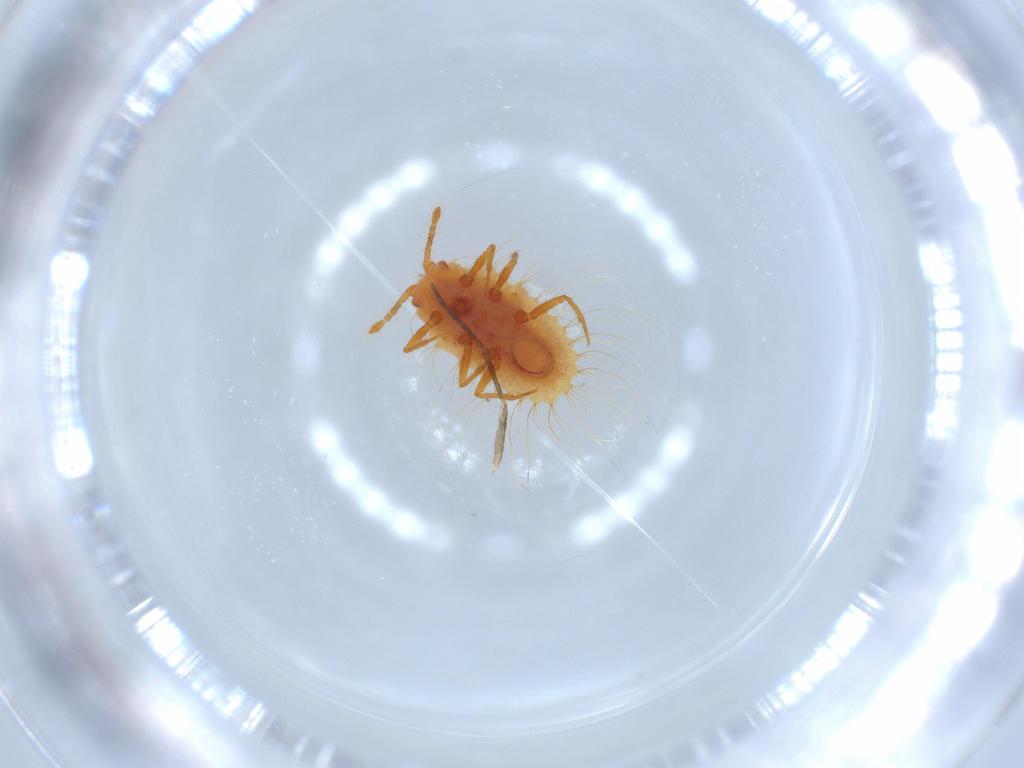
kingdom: Animalia
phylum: Arthropoda
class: Insecta
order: Hemiptera
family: Coccoidea_incertae_sedis
